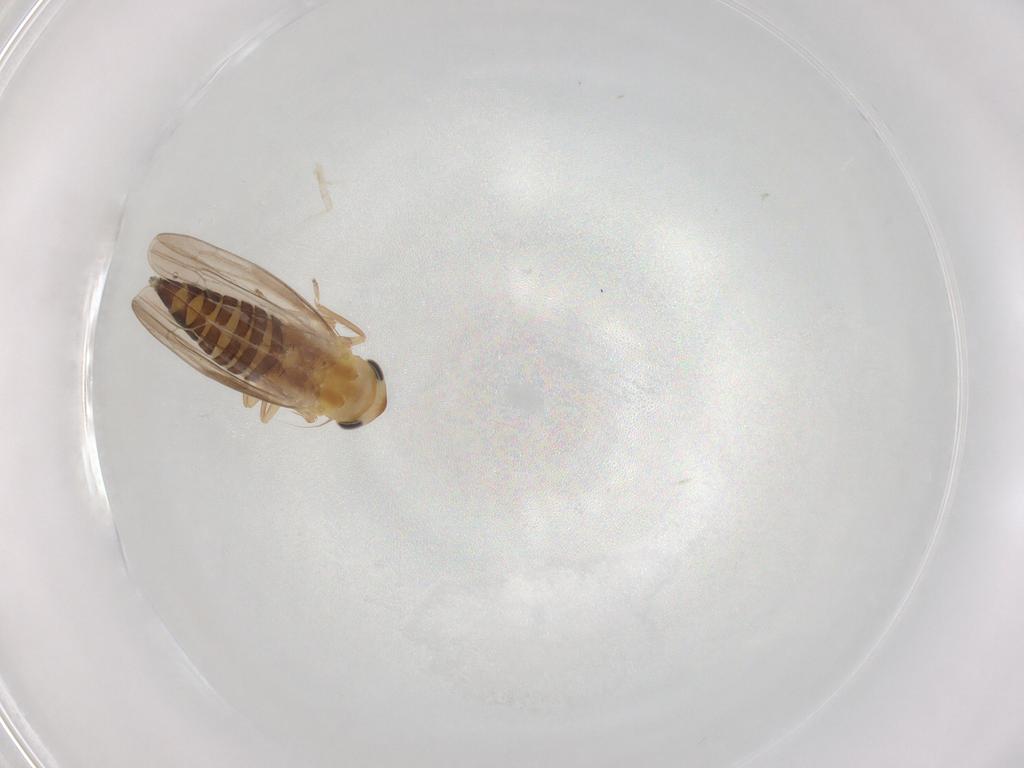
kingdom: Animalia
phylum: Arthropoda
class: Insecta
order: Hemiptera
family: Cicadellidae
